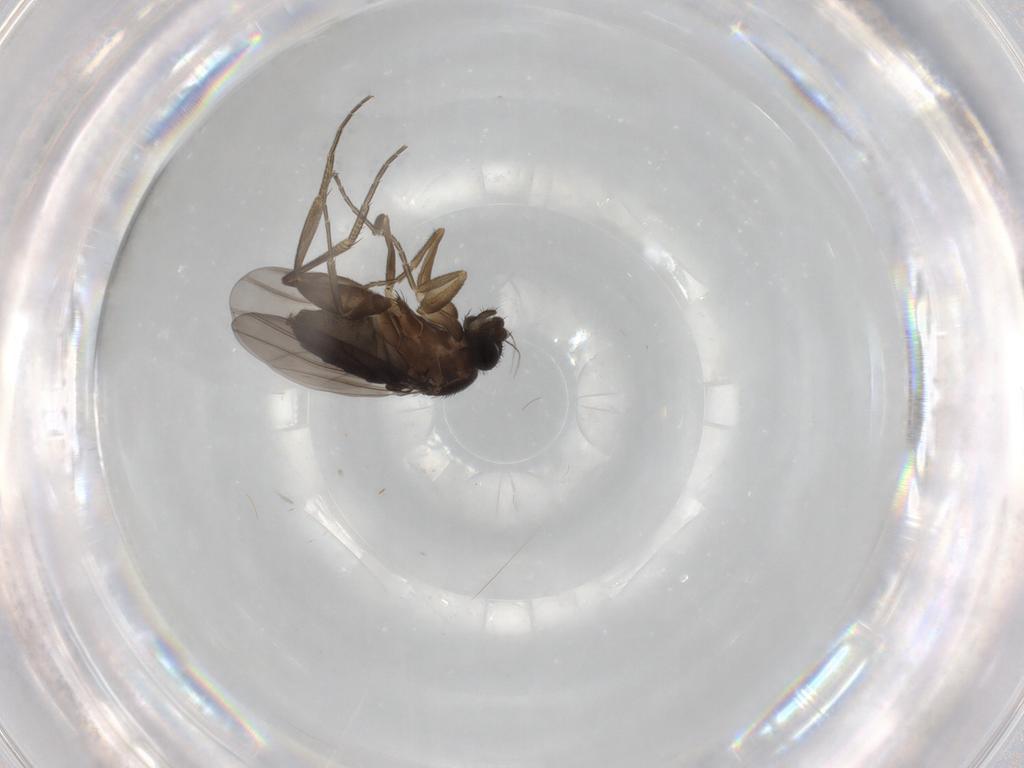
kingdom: Animalia
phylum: Arthropoda
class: Insecta
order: Diptera
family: Phoridae
